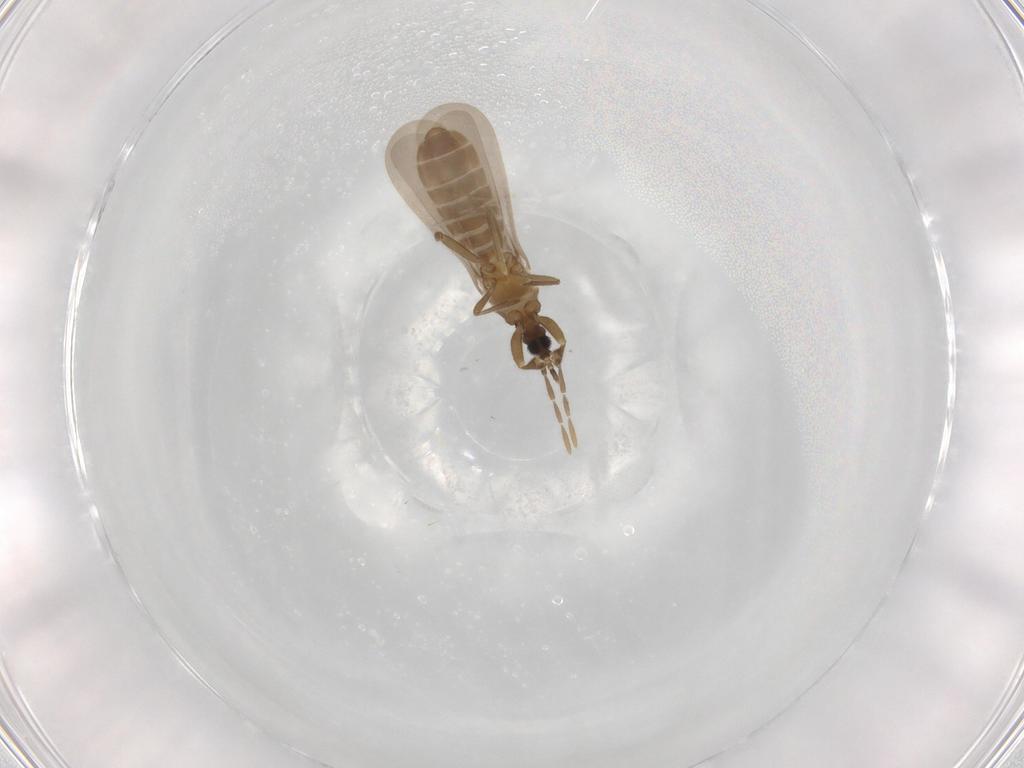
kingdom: Animalia
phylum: Arthropoda
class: Insecta
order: Hemiptera
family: Enicocephalidae
